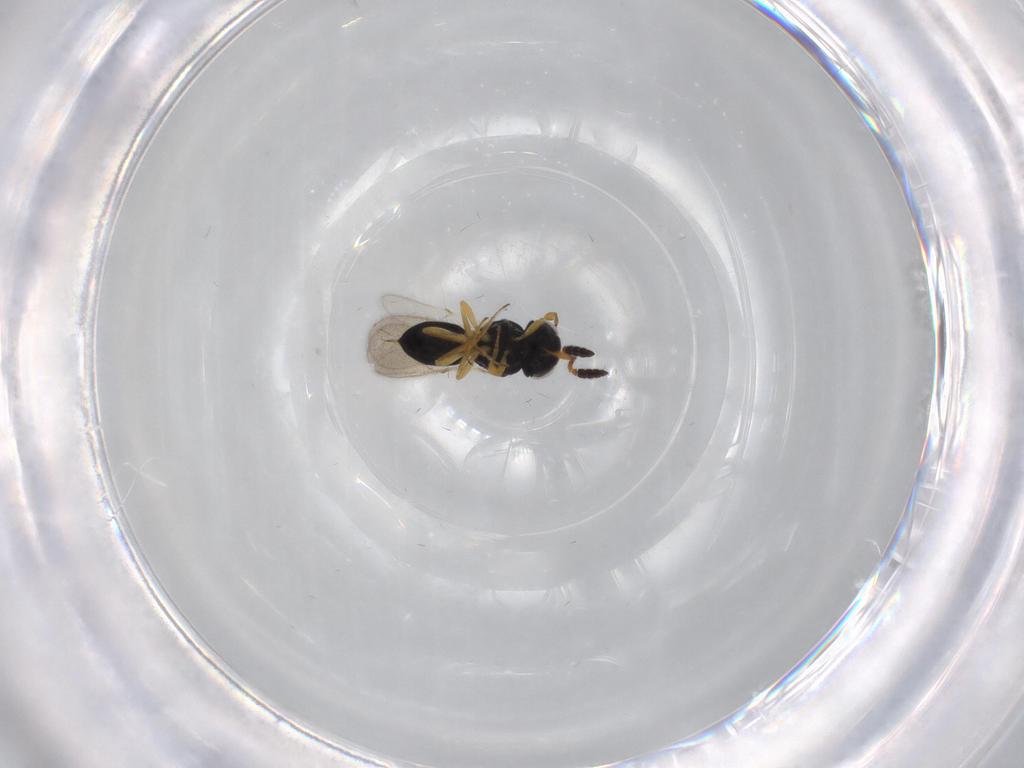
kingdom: Animalia
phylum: Arthropoda
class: Insecta
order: Hymenoptera
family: Scelionidae
